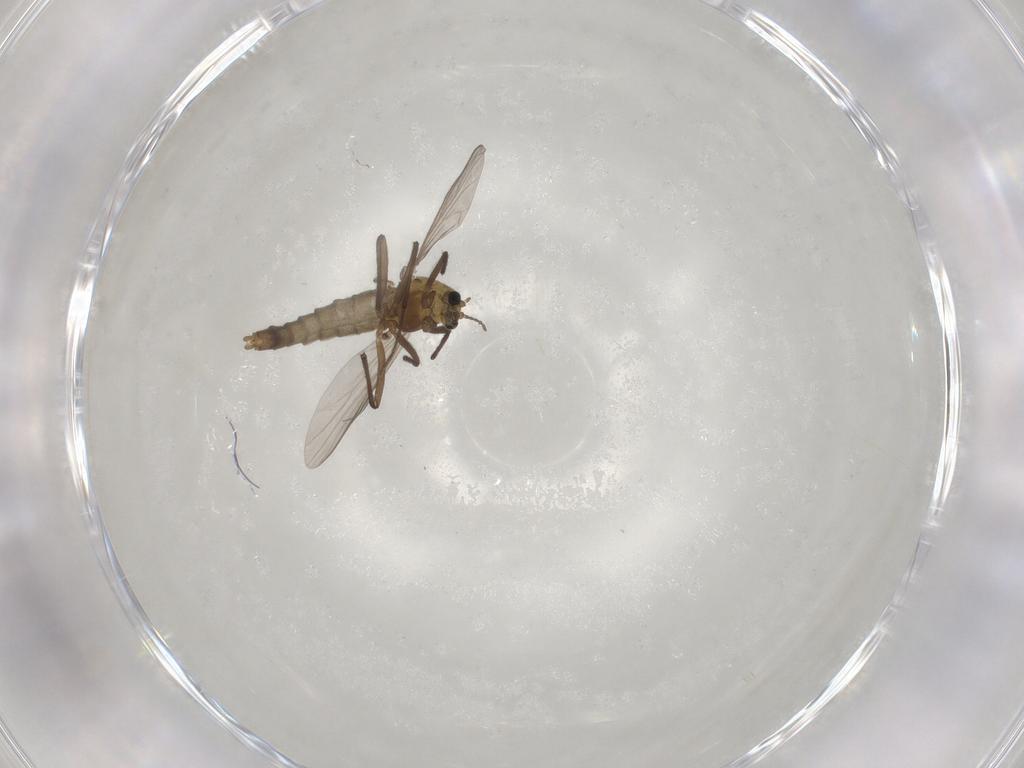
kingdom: Animalia
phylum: Arthropoda
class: Insecta
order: Diptera
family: Chironomidae
